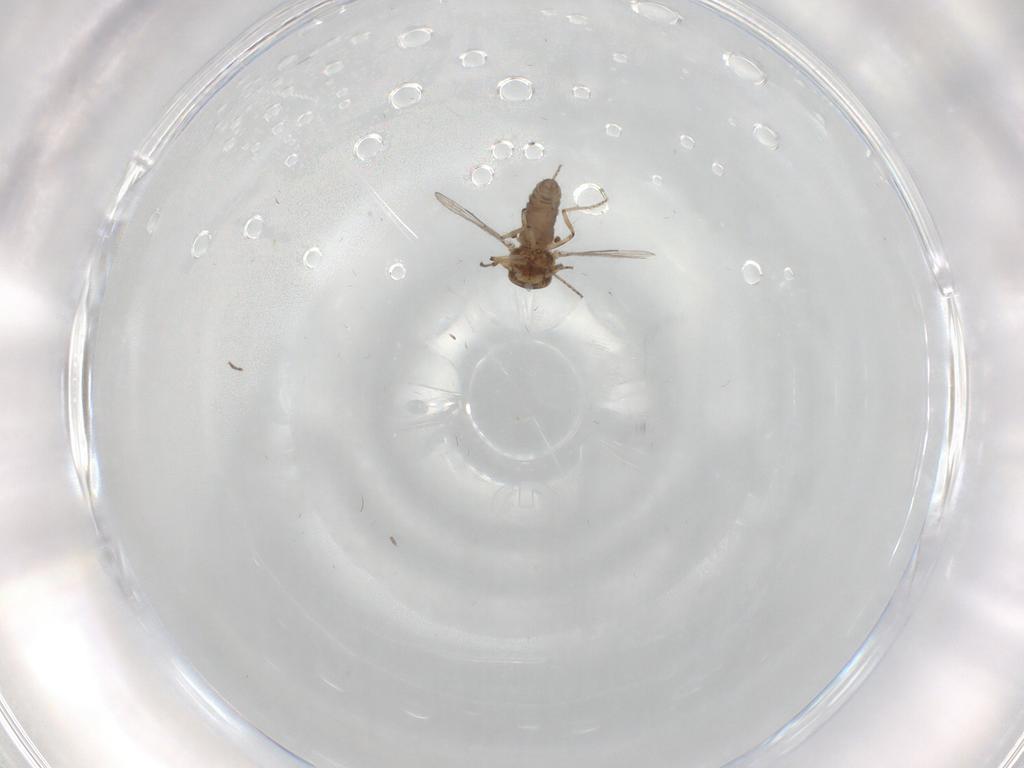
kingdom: Animalia
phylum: Arthropoda
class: Insecta
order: Diptera
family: Ceratopogonidae
